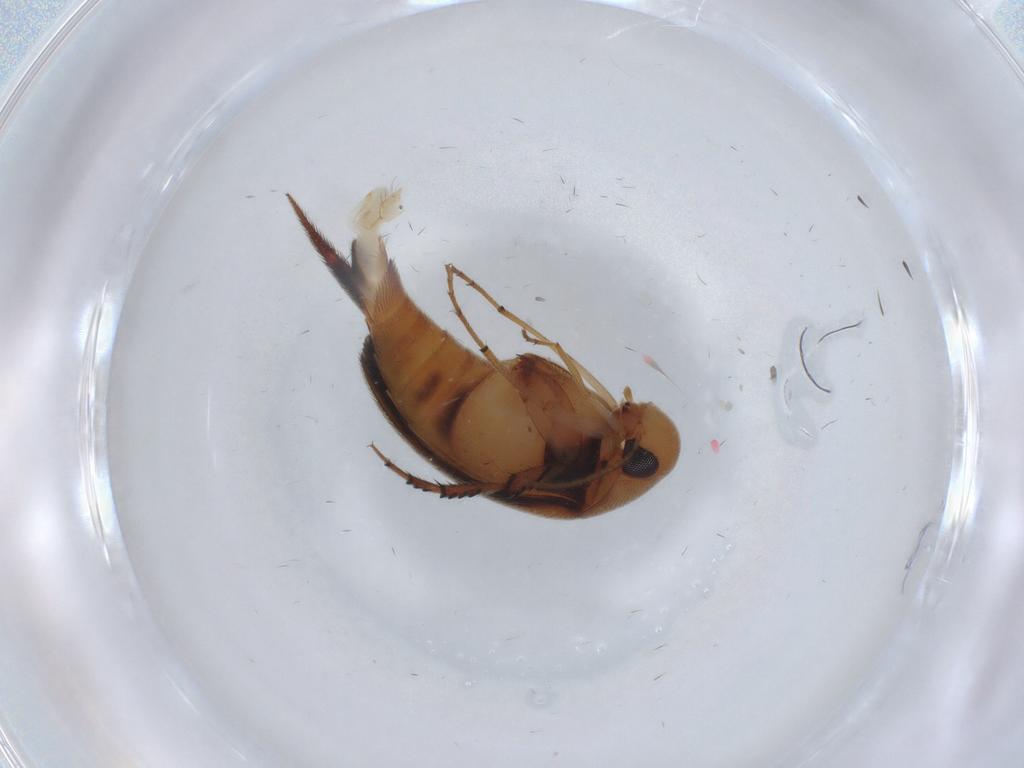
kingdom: Animalia
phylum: Arthropoda
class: Insecta
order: Coleoptera
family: Mordellidae
